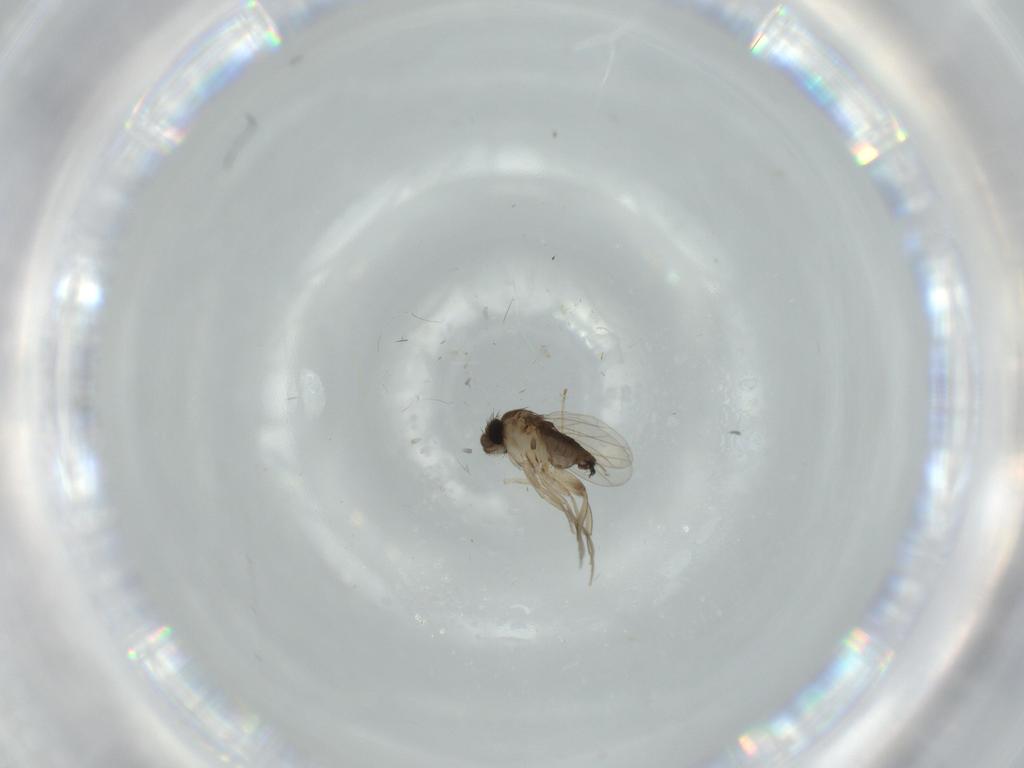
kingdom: Animalia
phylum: Arthropoda
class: Insecta
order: Diptera
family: Phoridae
